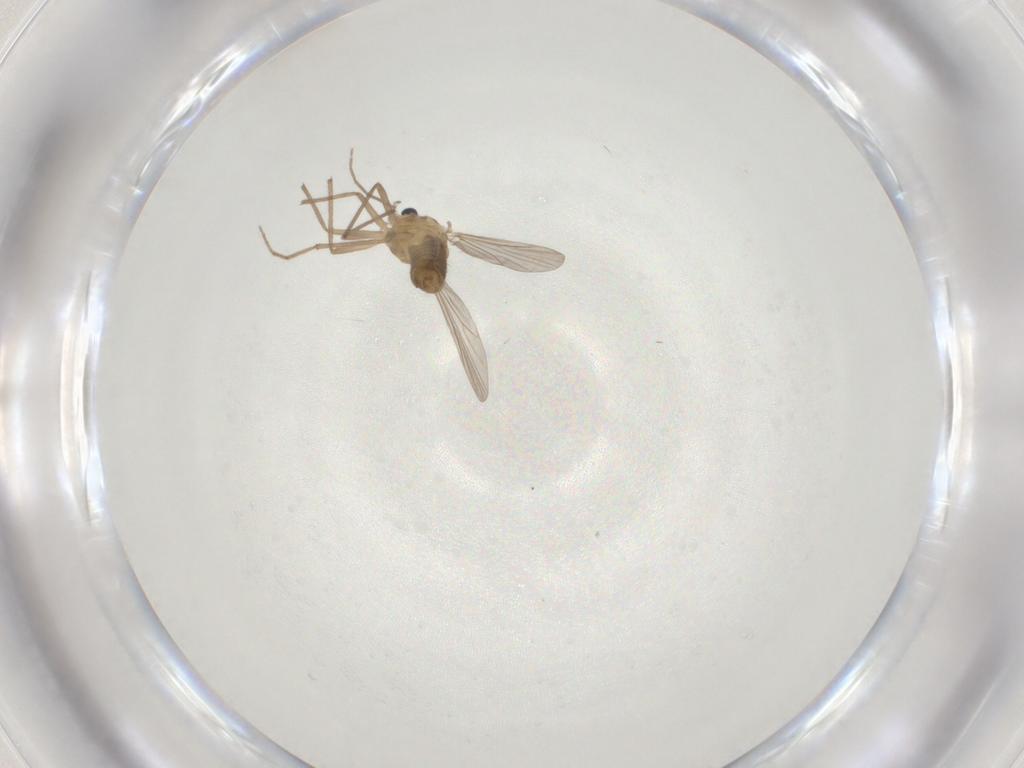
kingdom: Animalia
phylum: Arthropoda
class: Insecta
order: Diptera
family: Chironomidae
